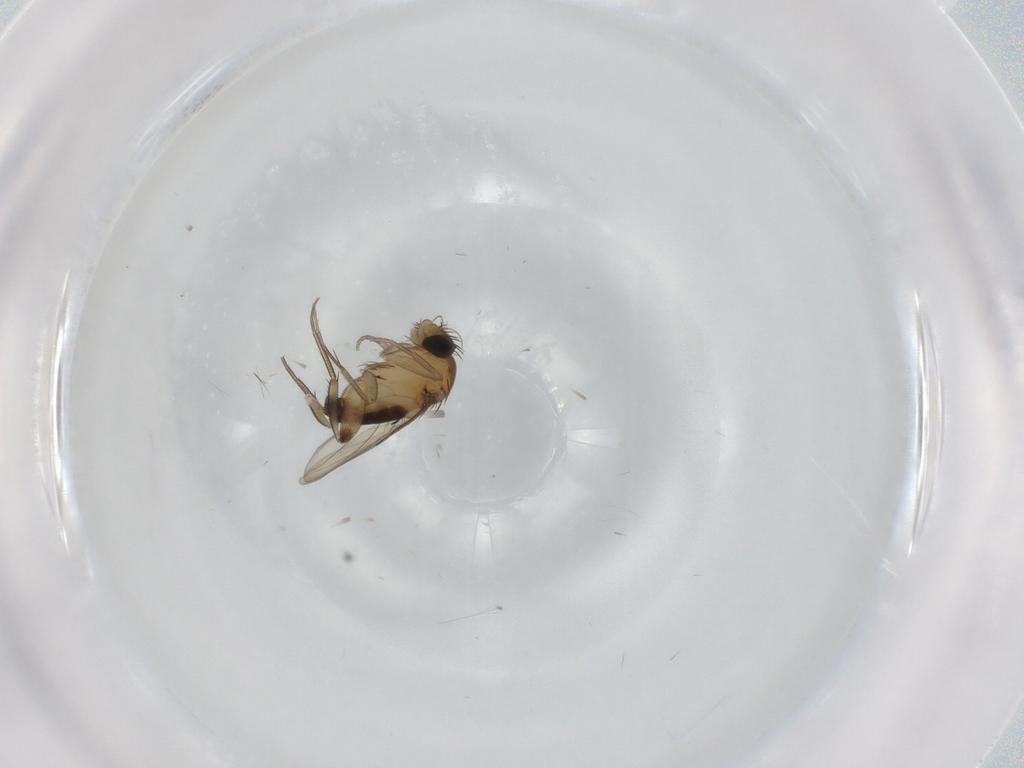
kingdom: Animalia
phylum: Arthropoda
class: Insecta
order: Diptera
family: Phoridae
